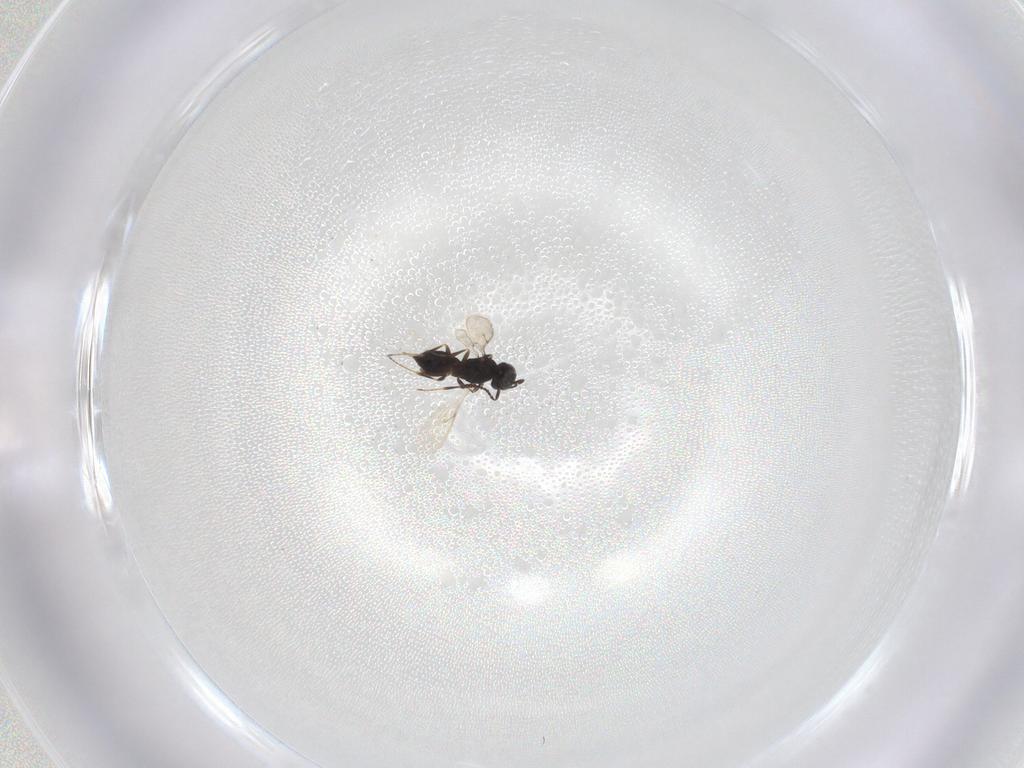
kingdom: Animalia
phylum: Arthropoda
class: Insecta
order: Hymenoptera
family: Scelionidae
